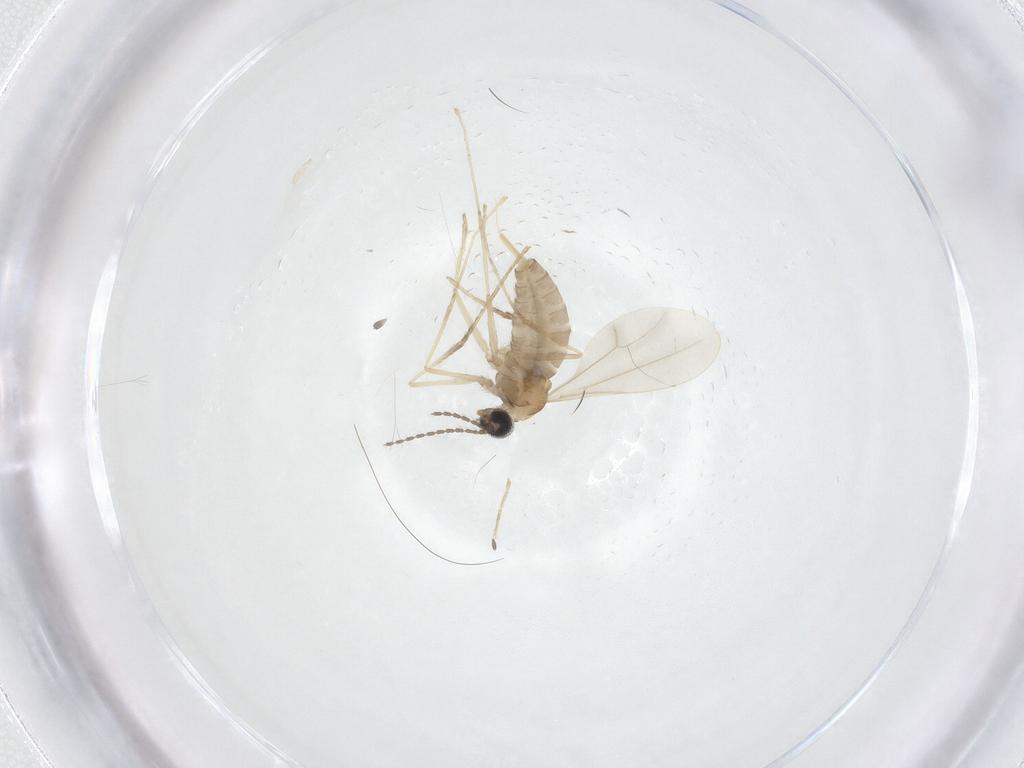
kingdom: Animalia
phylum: Arthropoda
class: Insecta
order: Diptera
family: Cecidomyiidae
